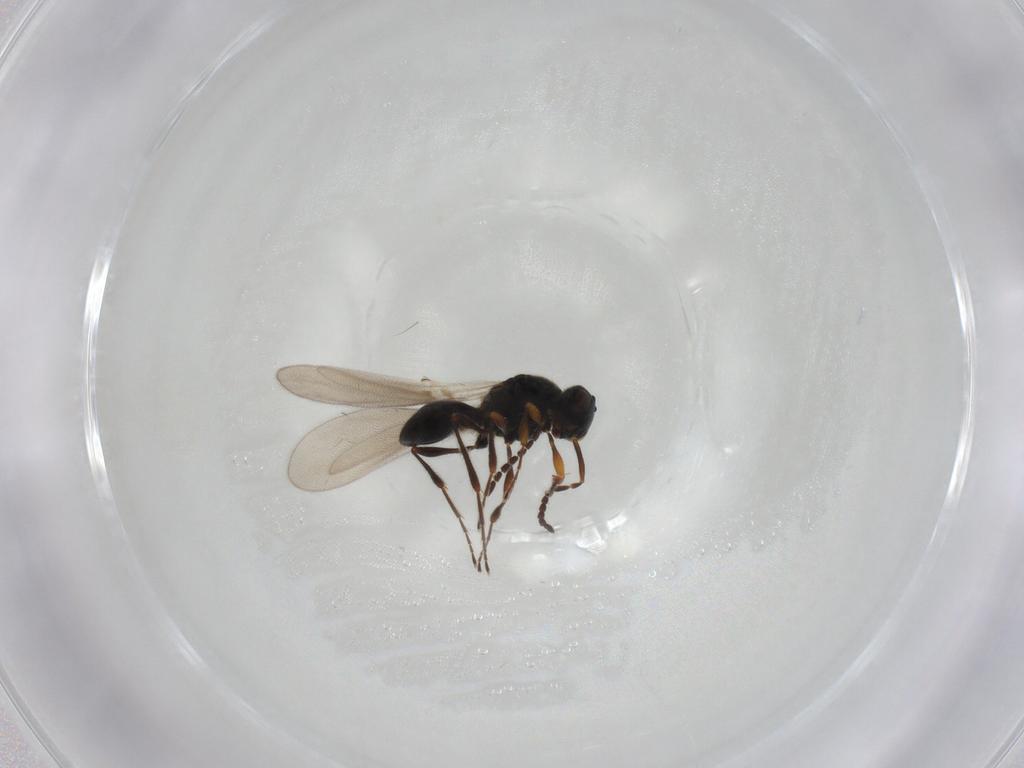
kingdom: Animalia
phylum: Arthropoda
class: Insecta
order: Hymenoptera
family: Platygastridae
